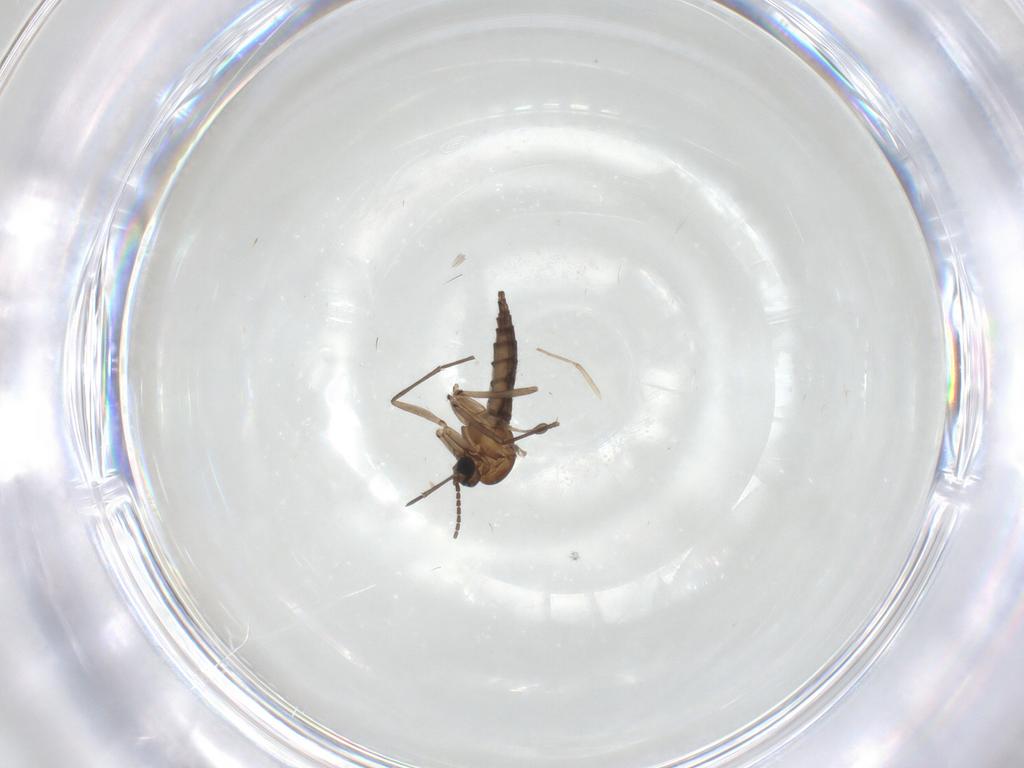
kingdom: Animalia
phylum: Arthropoda
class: Insecta
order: Diptera
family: Sciaridae
